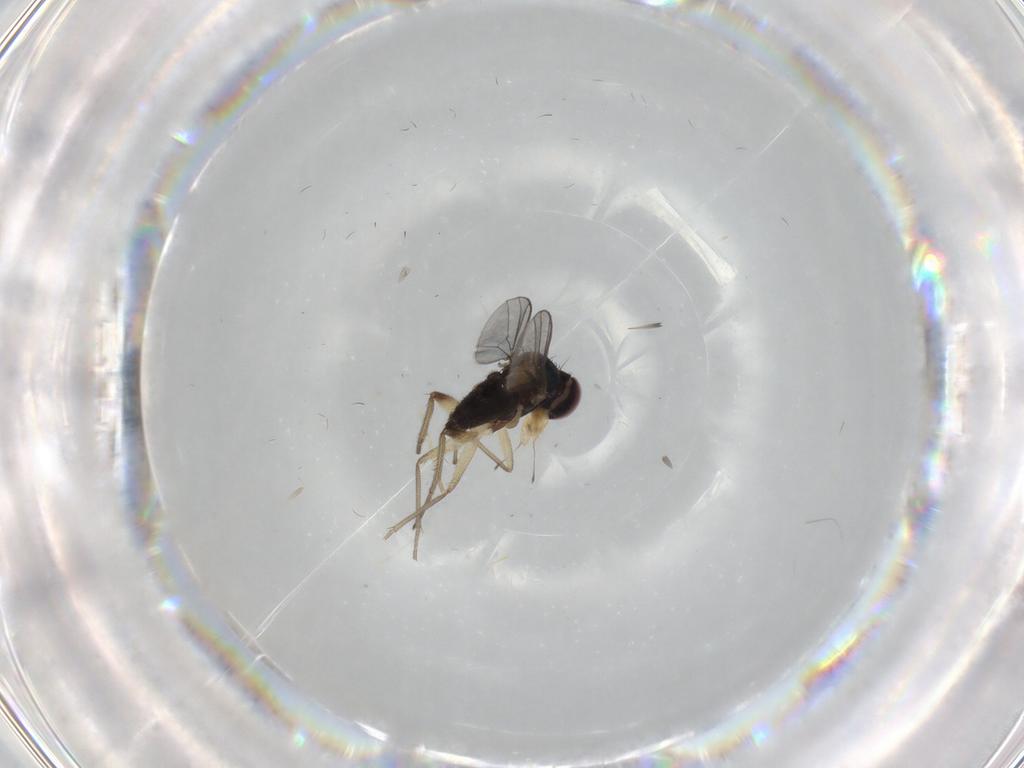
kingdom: Animalia
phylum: Arthropoda
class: Insecta
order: Diptera
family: Dolichopodidae
